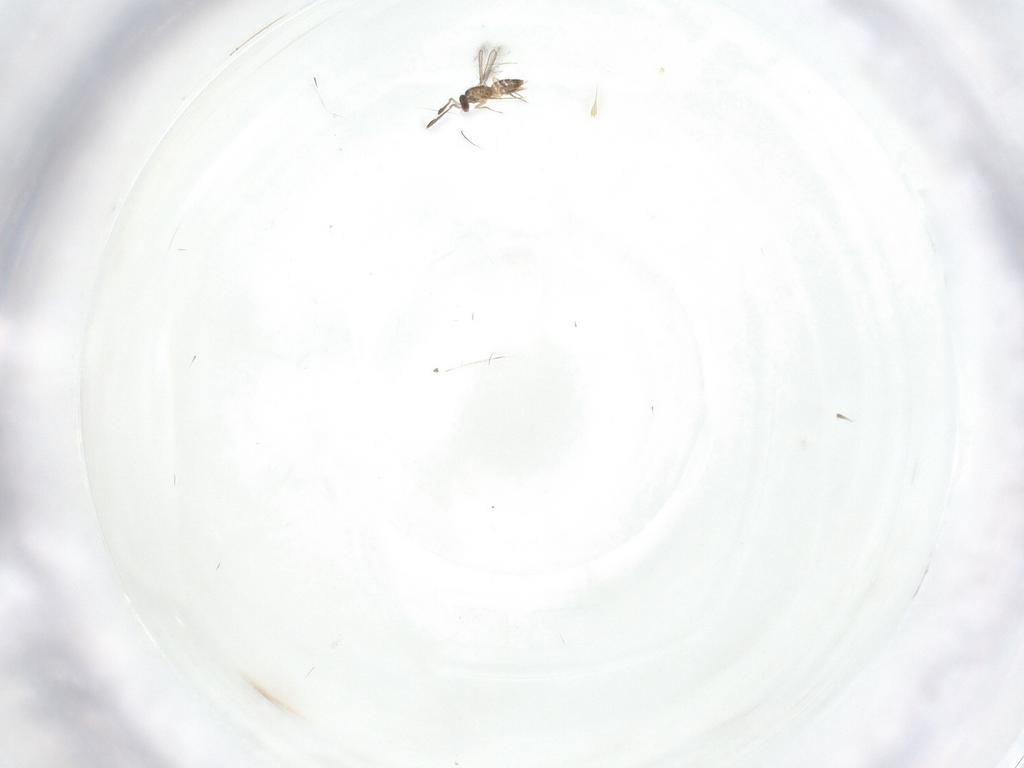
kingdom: Animalia
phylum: Arthropoda
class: Insecta
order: Hymenoptera
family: Mymaridae
